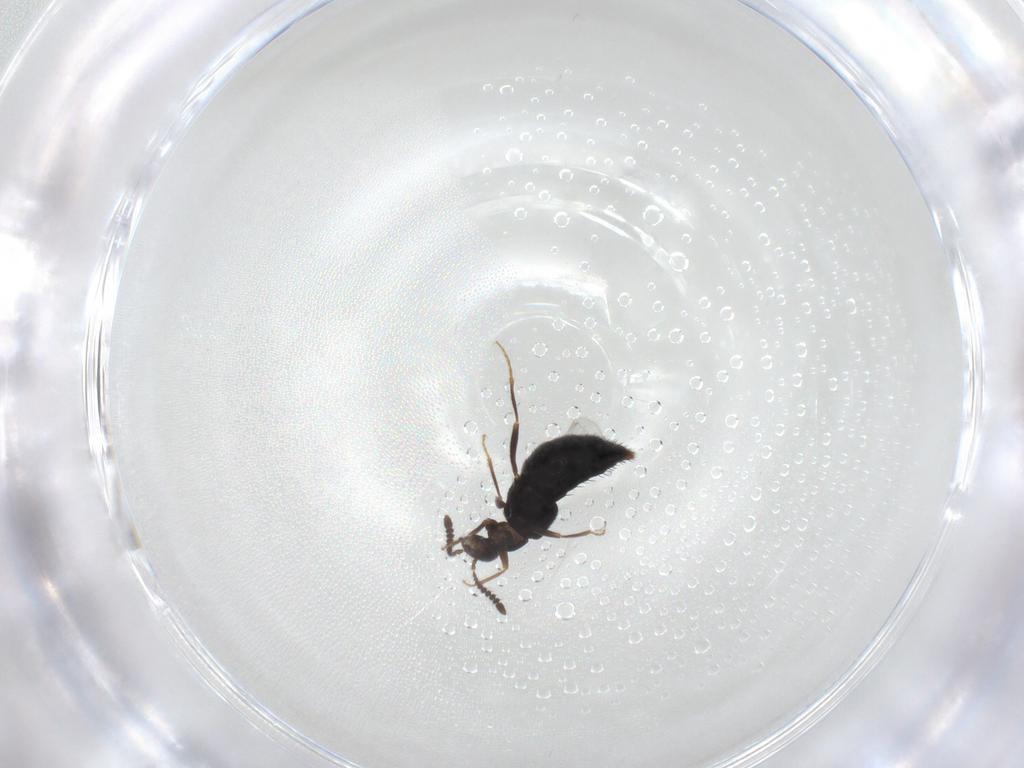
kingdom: Animalia
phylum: Arthropoda
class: Insecta
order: Coleoptera
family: Staphylinidae
